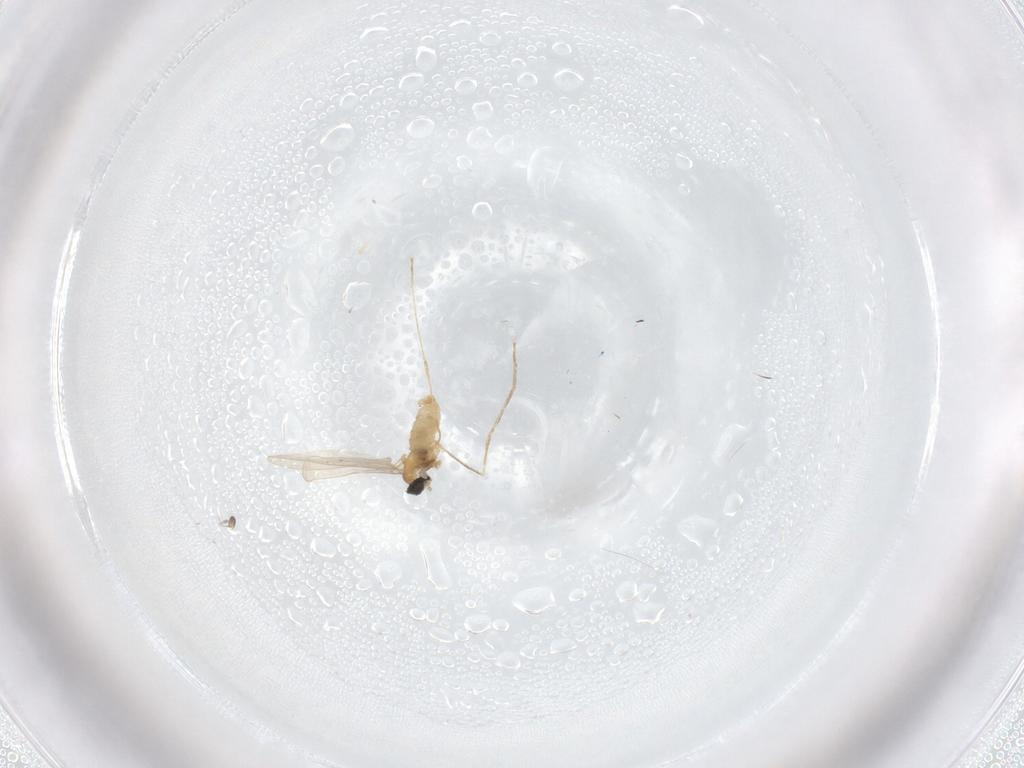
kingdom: Animalia
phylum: Arthropoda
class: Insecta
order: Diptera
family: Cecidomyiidae
